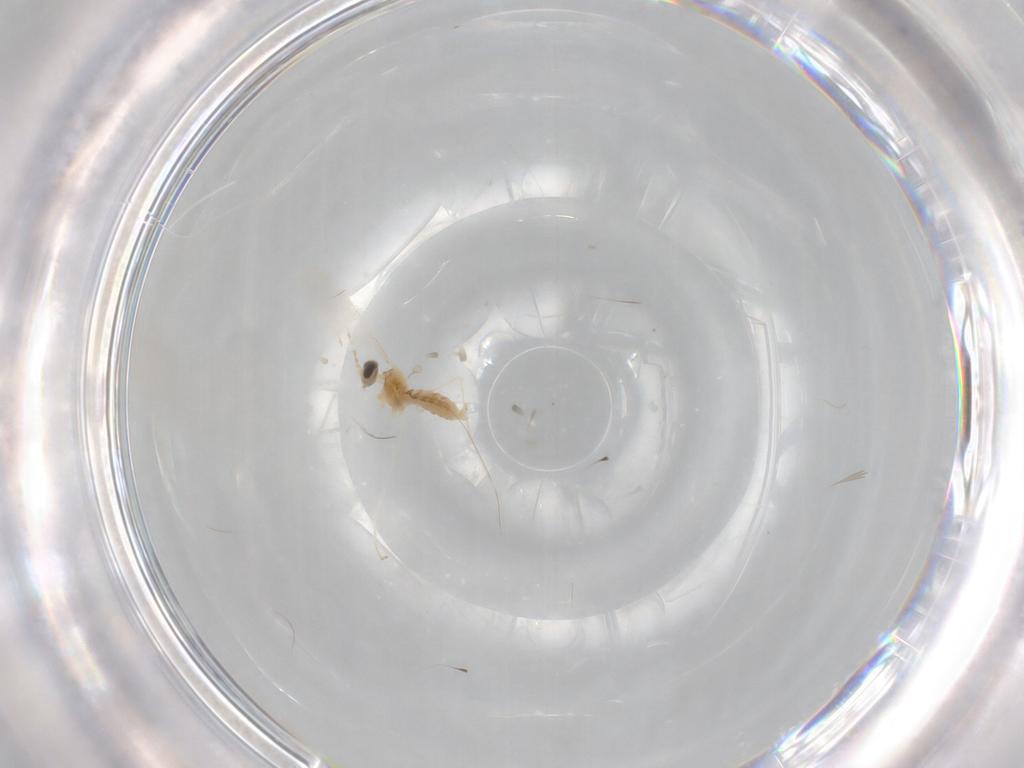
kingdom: Animalia
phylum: Arthropoda
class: Insecta
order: Diptera
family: Cecidomyiidae
